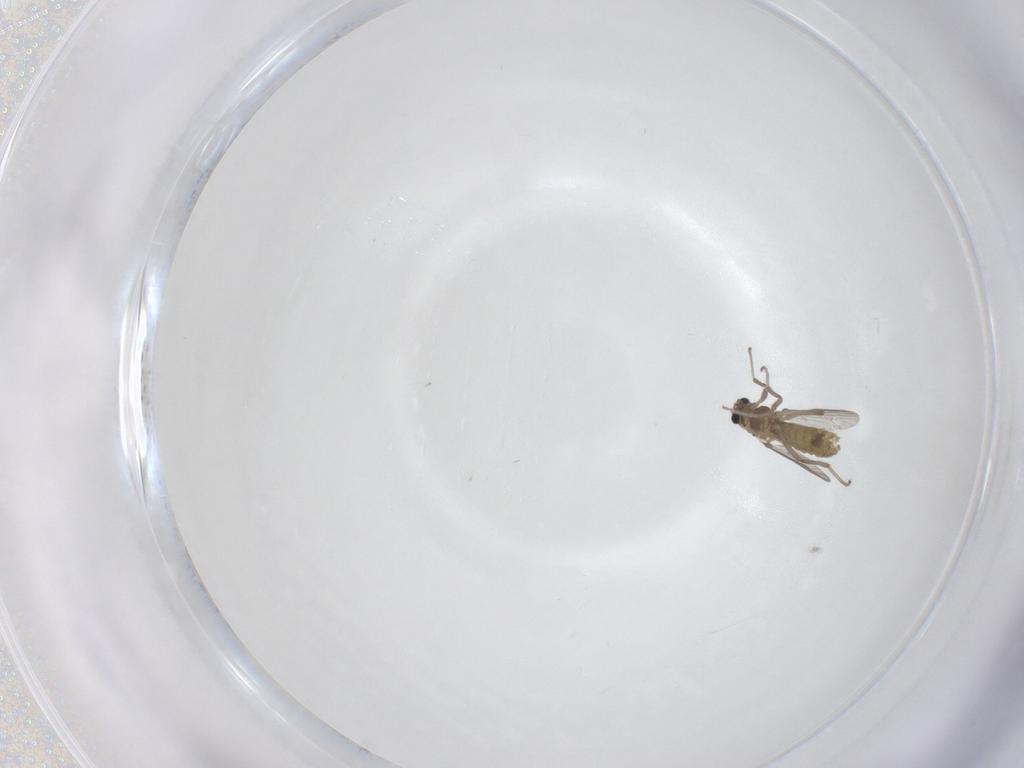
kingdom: Animalia
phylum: Arthropoda
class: Insecta
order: Diptera
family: Chironomidae
